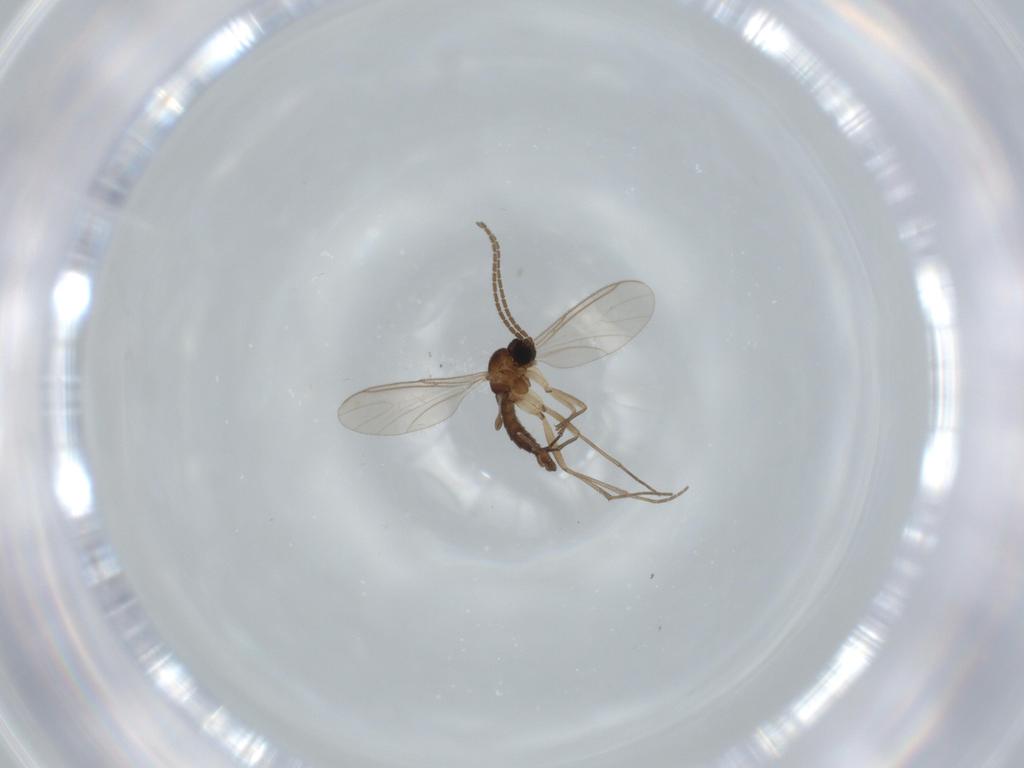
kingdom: Animalia
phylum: Arthropoda
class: Insecta
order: Diptera
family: Sciaridae
